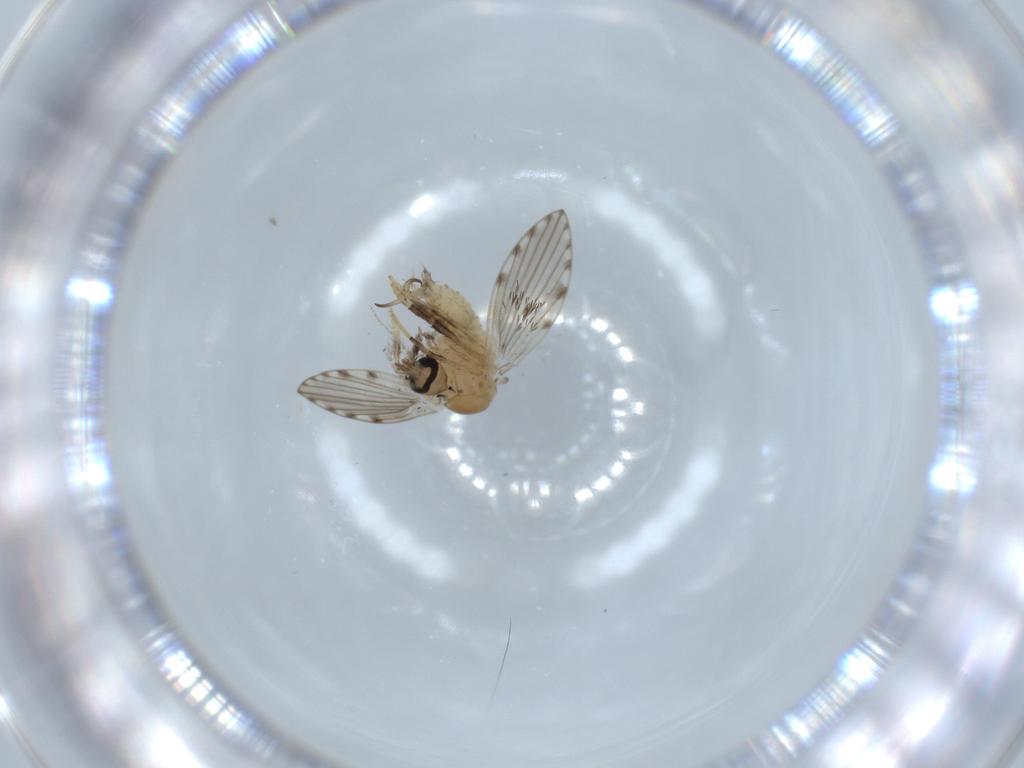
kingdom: Animalia
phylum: Arthropoda
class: Insecta
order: Diptera
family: Psychodidae
